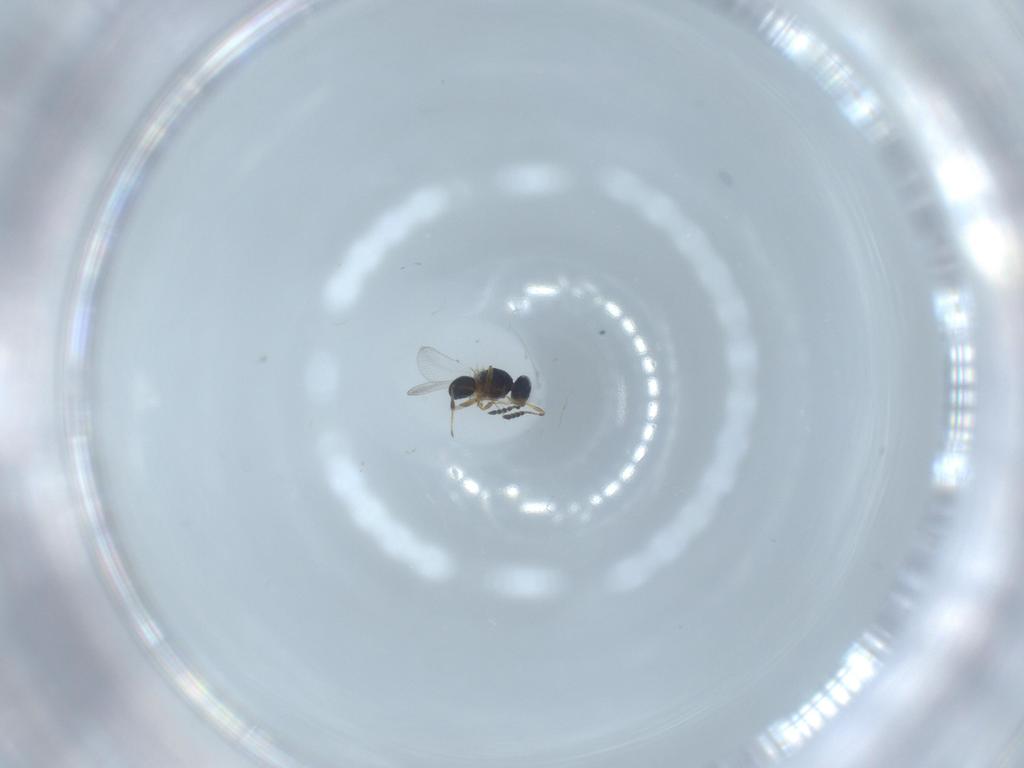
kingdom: Animalia
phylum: Arthropoda
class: Insecta
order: Hymenoptera
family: Platygastridae
